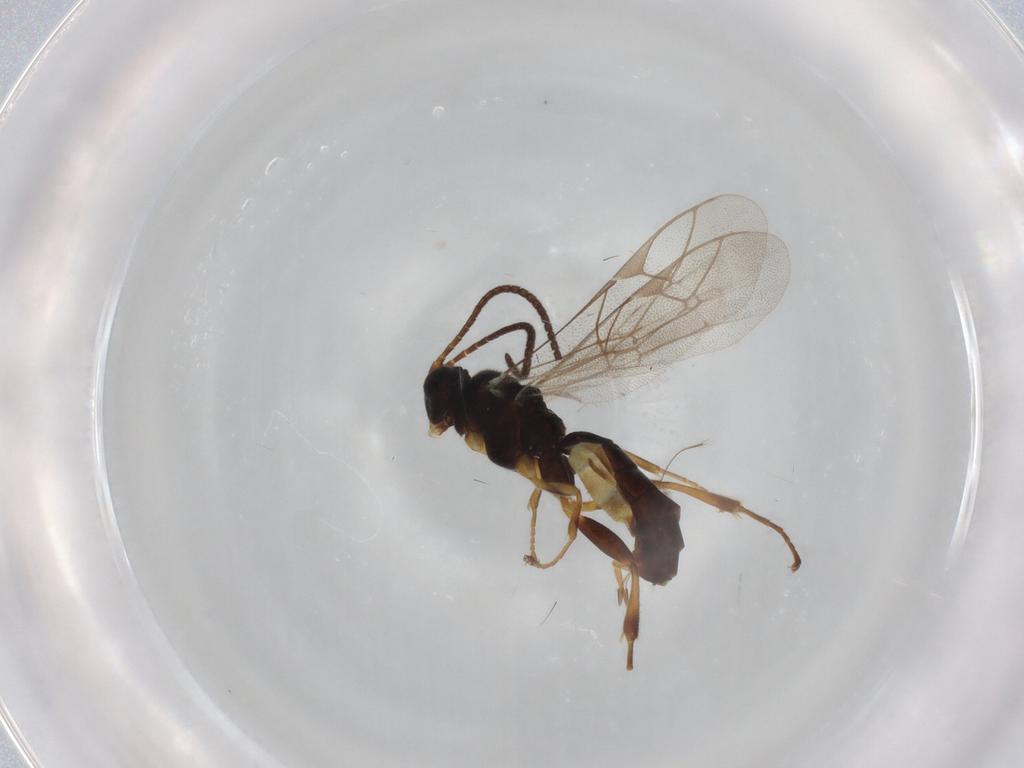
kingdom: Animalia
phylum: Arthropoda
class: Insecta
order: Hymenoptera
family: Ichneumonidae
